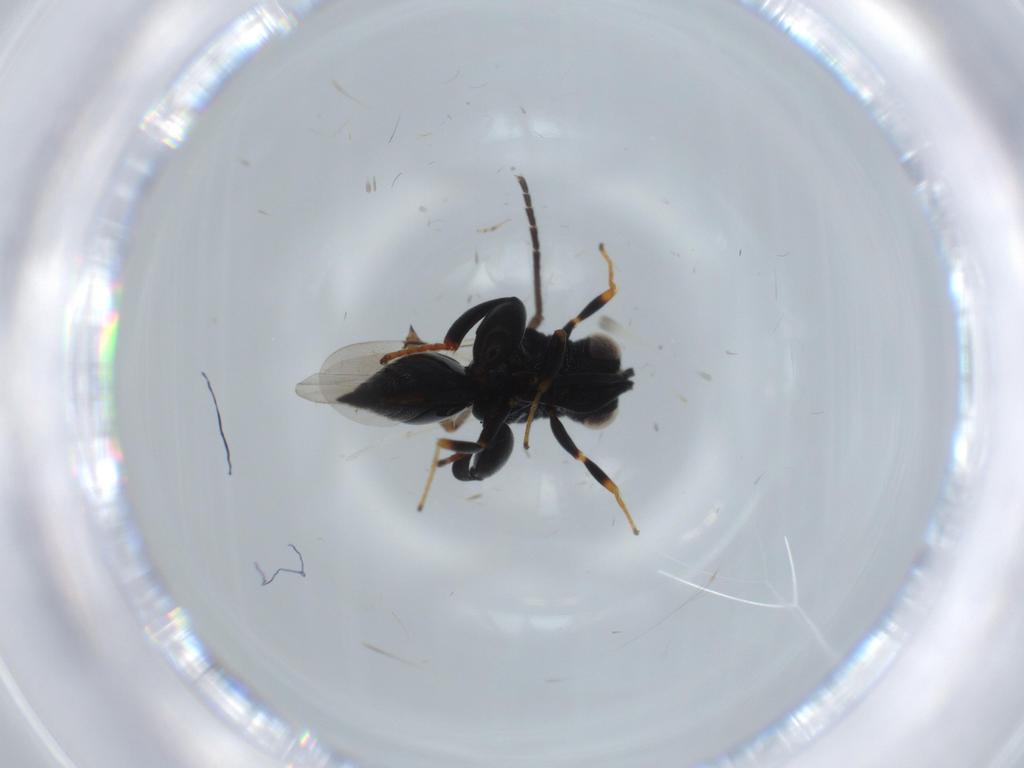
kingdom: Animalia
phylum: Arthropoda
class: Insecta
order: Diptera
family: Sciaridae
